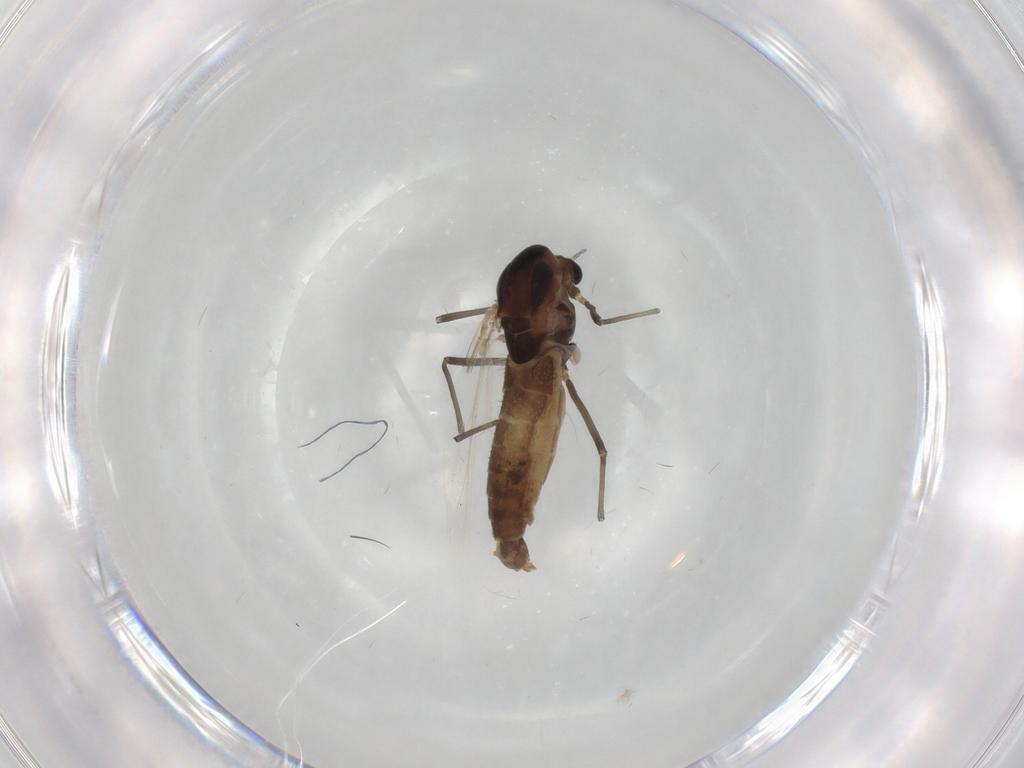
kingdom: Animalia
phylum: Arthropoda
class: Insecta
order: Diptera
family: Chironomidae
